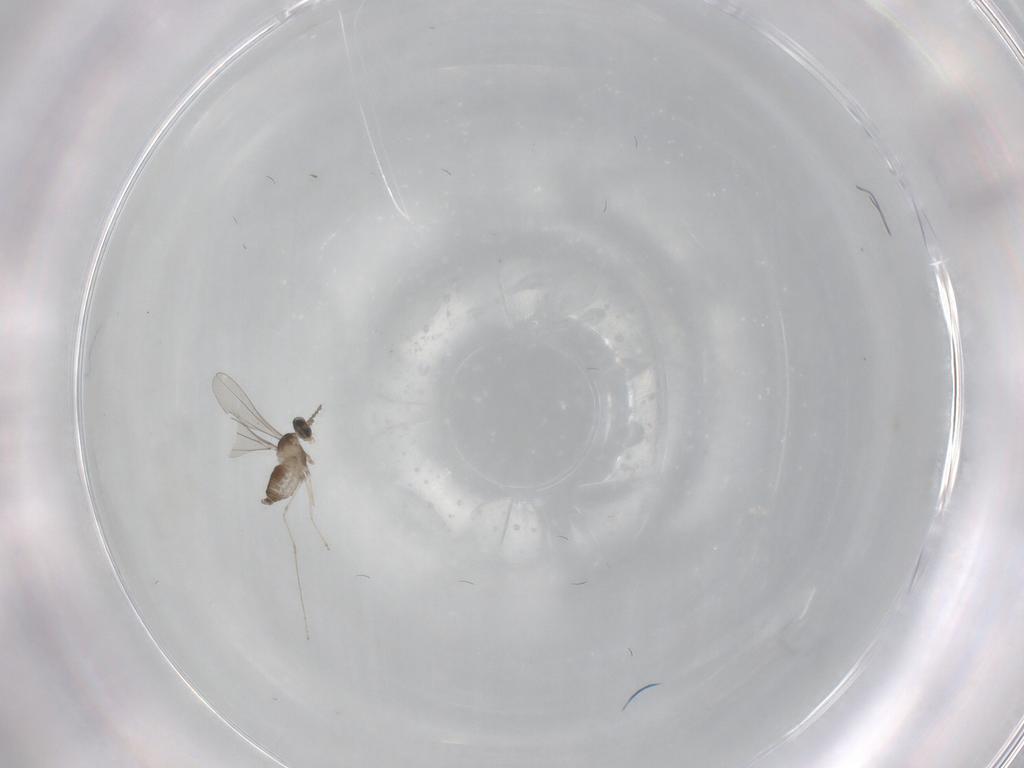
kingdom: Animalia
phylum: Arthropoda
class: Insecta
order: Diptera
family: Cecidomyiidae
